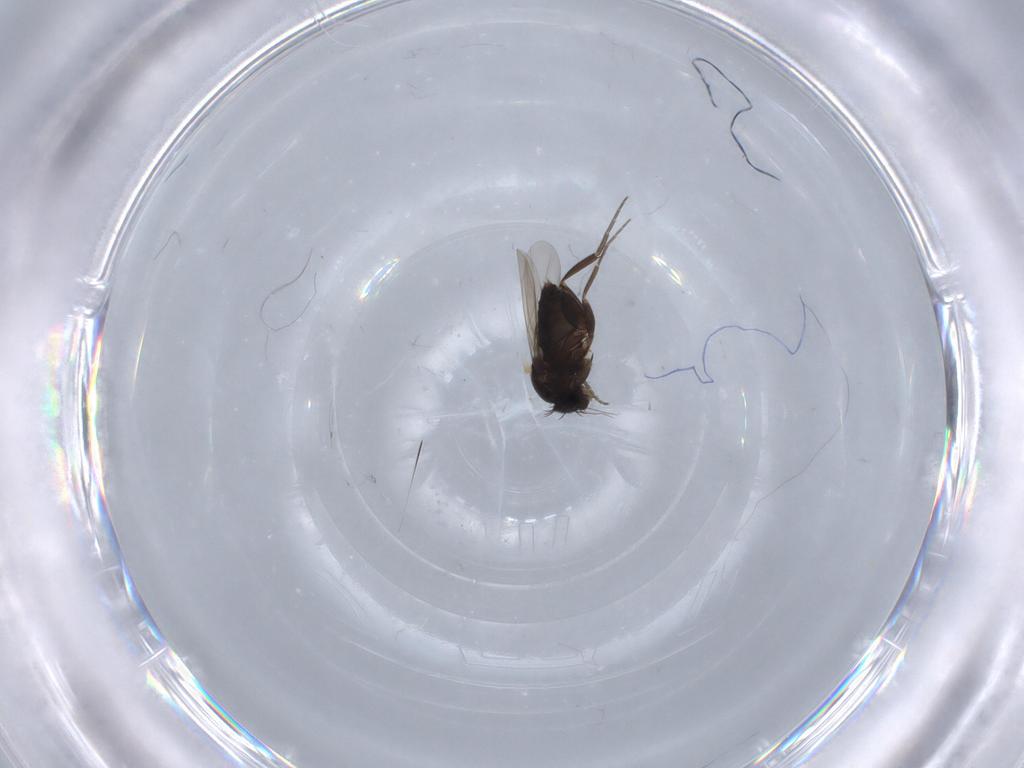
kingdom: Animalia
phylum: Arthropoda
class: Insecta
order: Diptera
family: Phoridae
